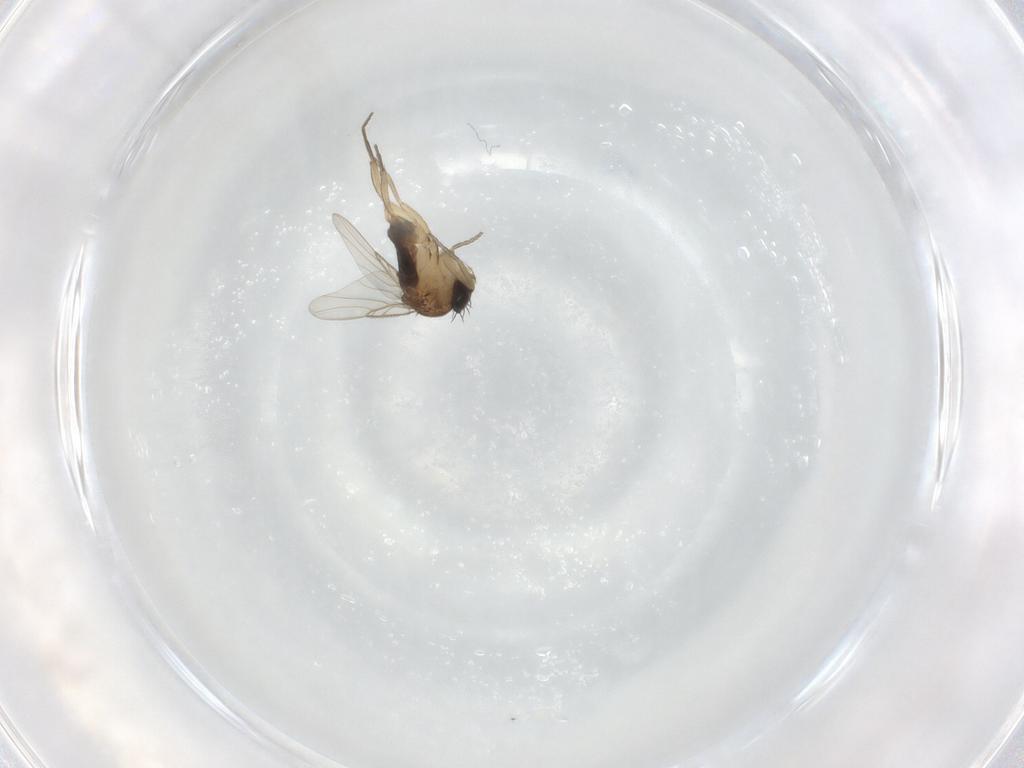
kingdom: Animalia
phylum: Arthropoda
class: Insecta
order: Diptera
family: Phoridae
